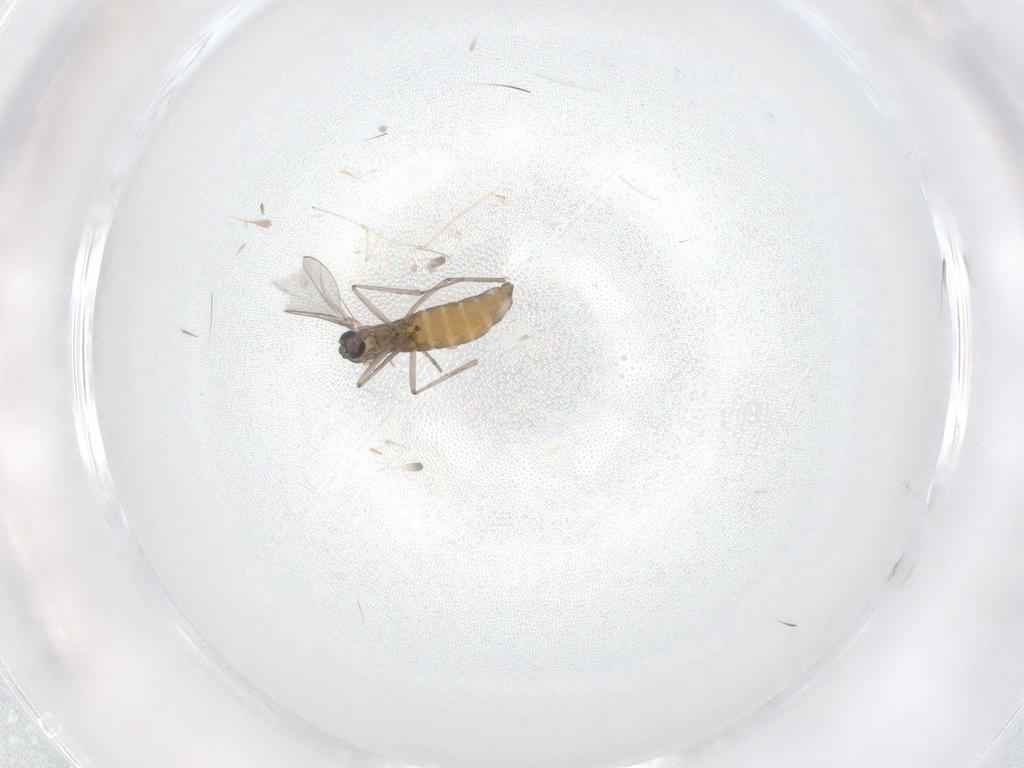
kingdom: Animalia
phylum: Arthropoda
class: Insecta
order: Diptera
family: Cecidomyiidae
